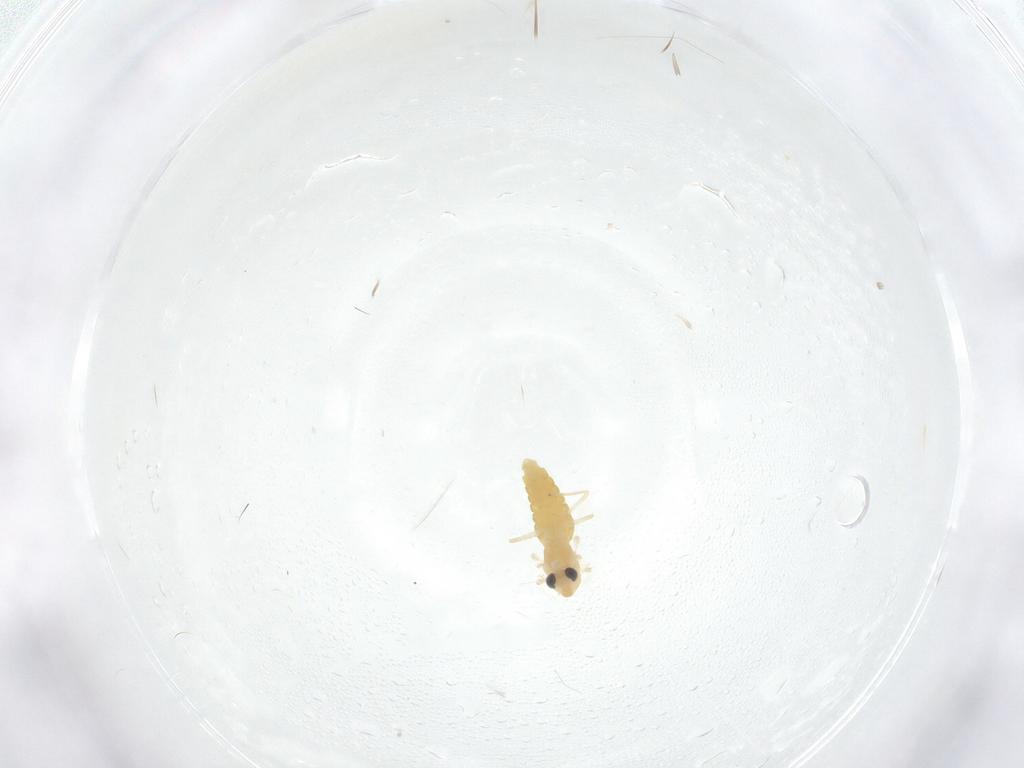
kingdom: Animalia
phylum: Arthropoda
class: Insecta
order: Diptera
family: Chironomidae
